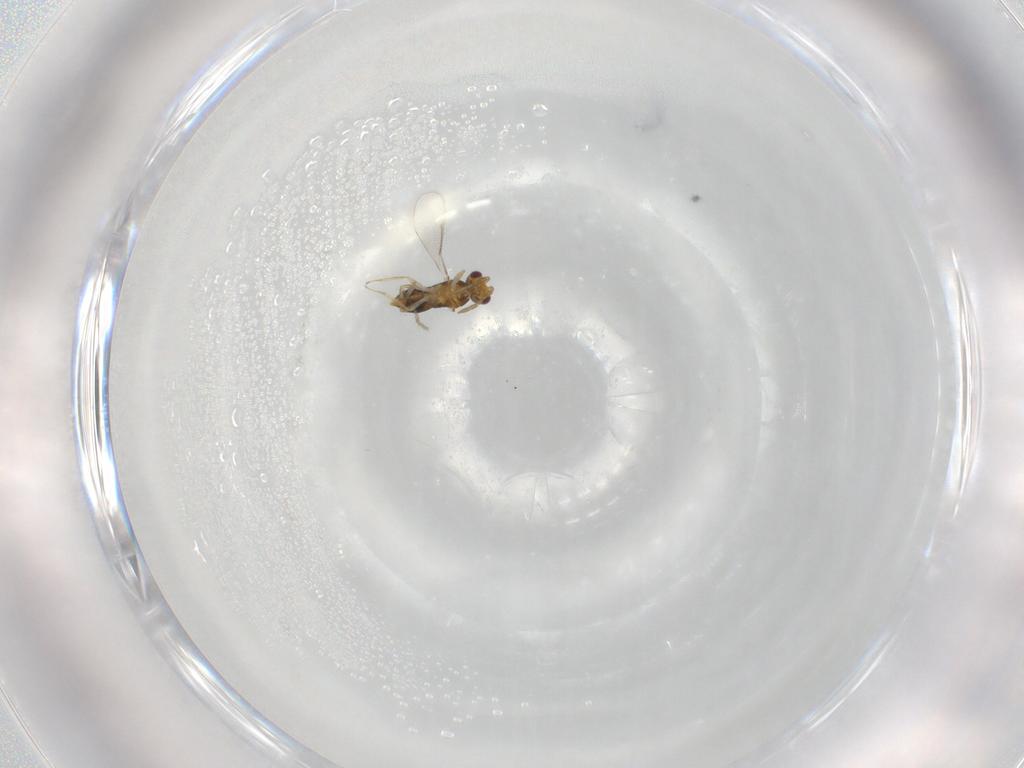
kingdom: Animalia
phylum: Arthropoda
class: Insecta
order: Hymenoptera
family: Aphelinidae
